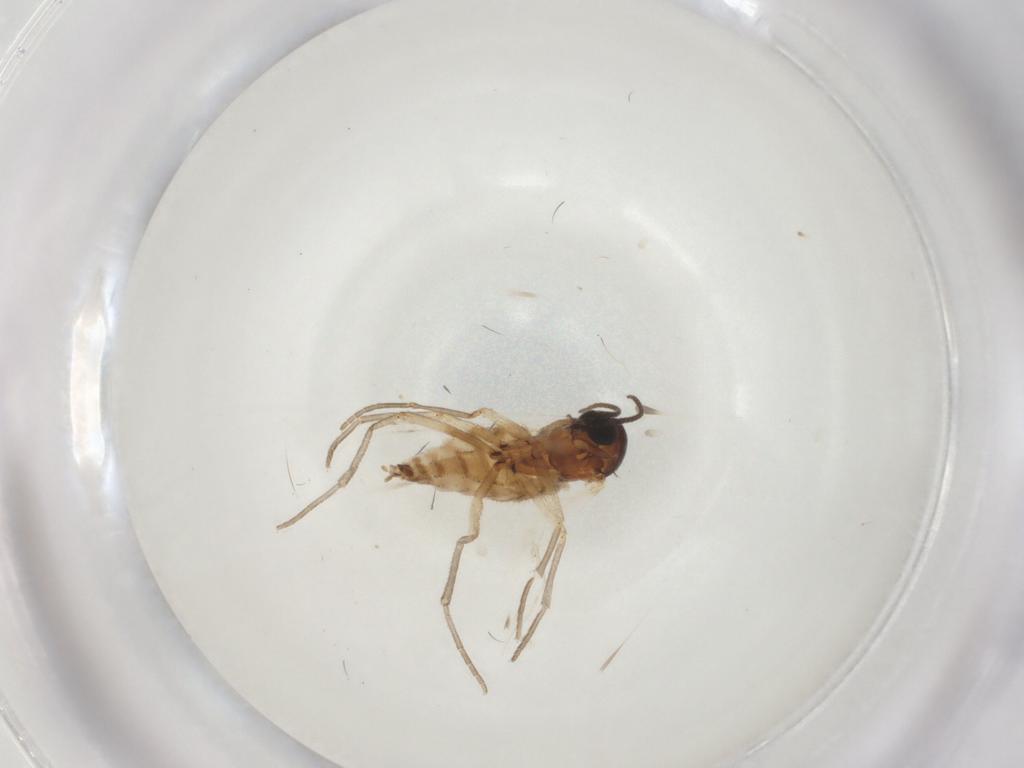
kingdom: Animalia
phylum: Arthropoda
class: Insecta
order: Diptera
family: Sciaridae
